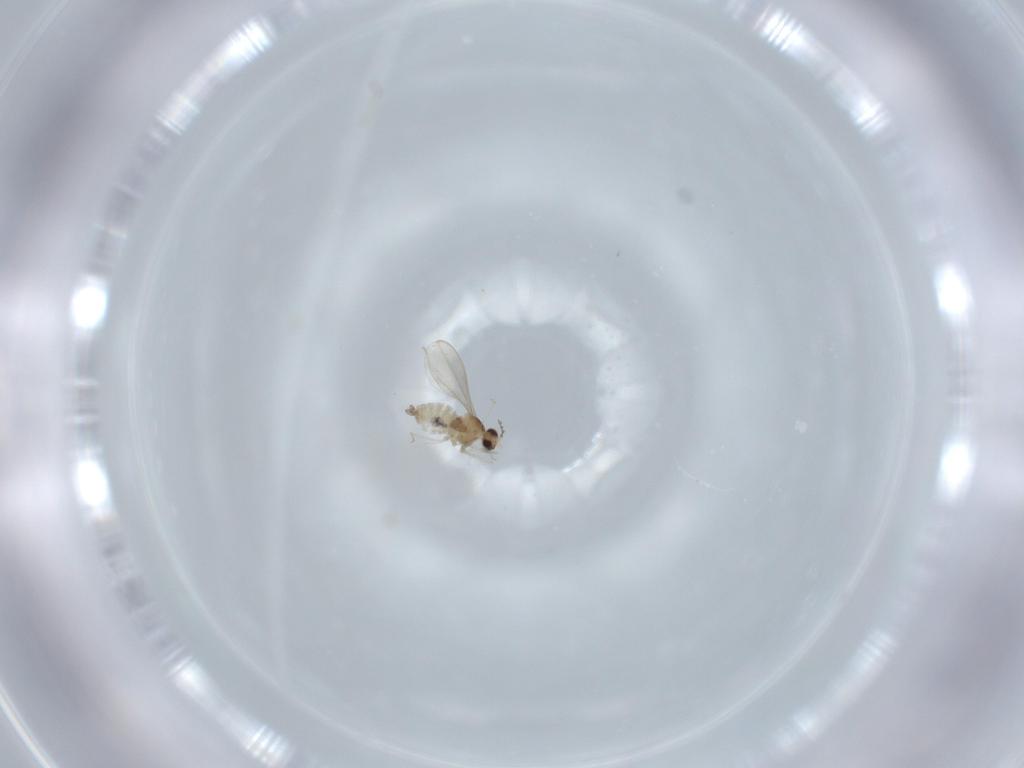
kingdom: Animalia
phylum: Arthropoda
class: Insecta
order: Diptera
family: Cecidomyiidae
